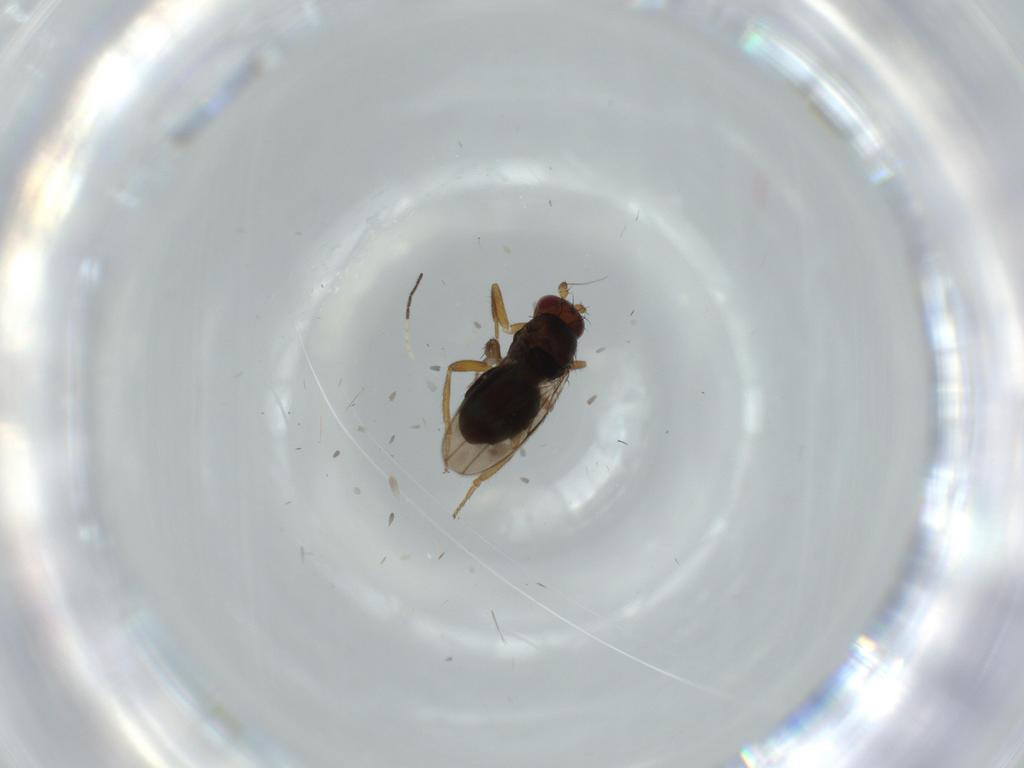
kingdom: Animalia
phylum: Arthropoda
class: Insecta
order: Diptera
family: Sphaeroceridae
